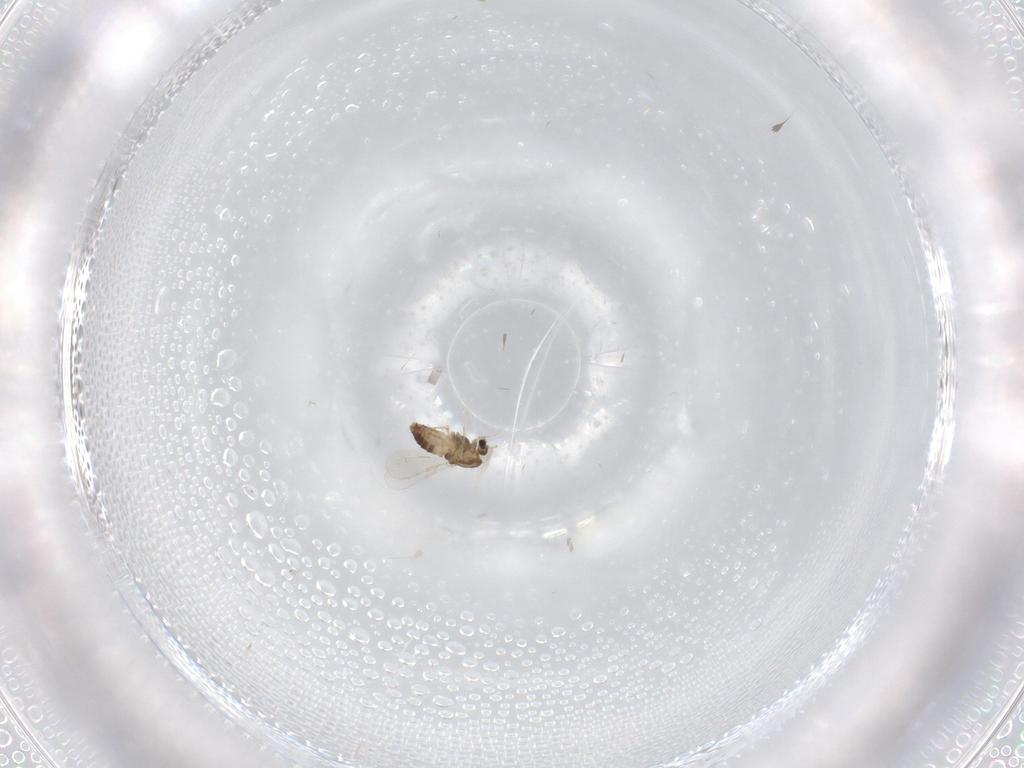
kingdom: Animalia
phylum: Arthropoda
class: Insecta
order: Diptera
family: Chironomidae
